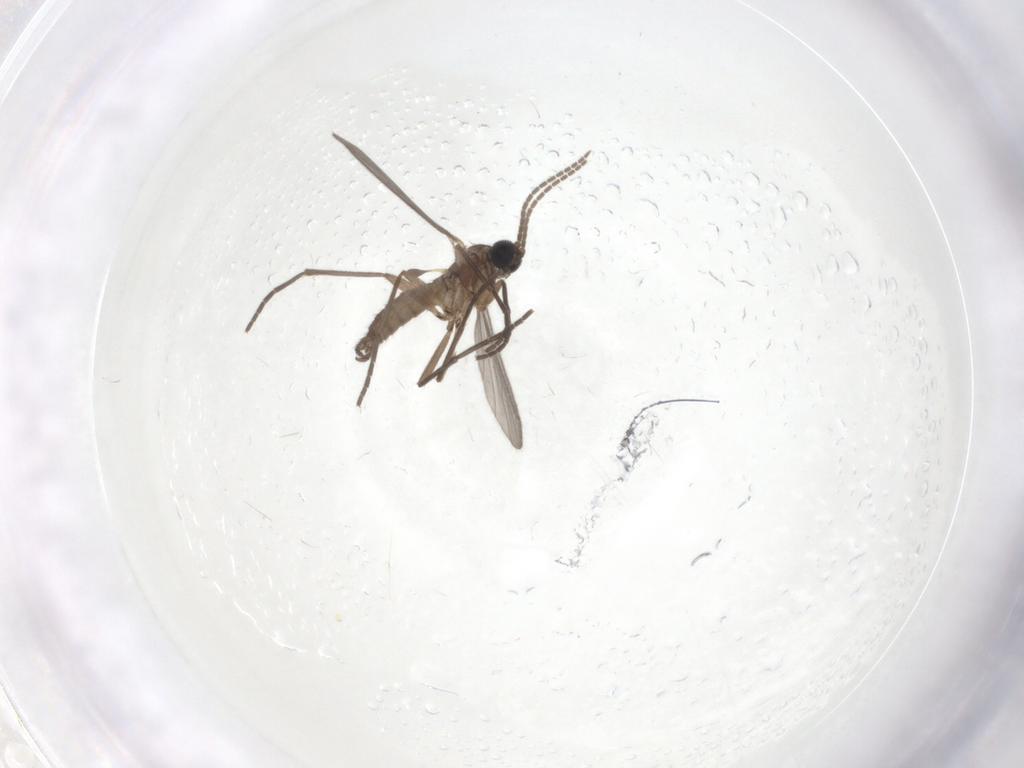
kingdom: Animalia
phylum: Arthropoda
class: Insecta
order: Diptera
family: Sciaridae
